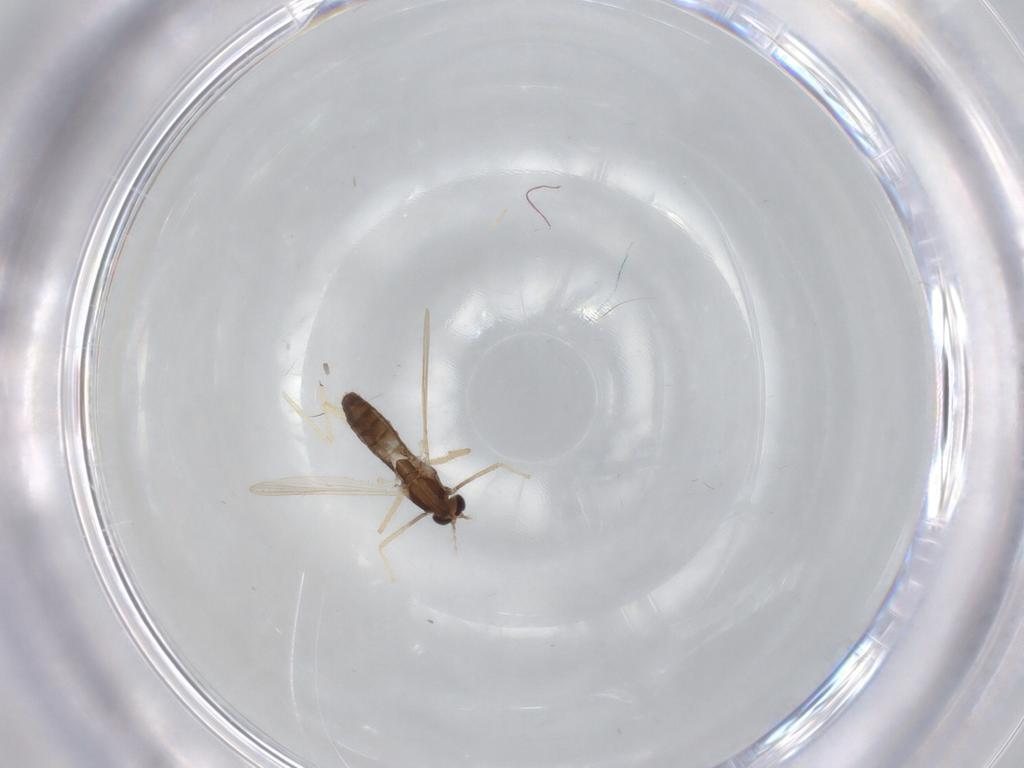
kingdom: Animalia
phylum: Arthropoda
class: Insecta
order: Diptera
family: Chironomidae
